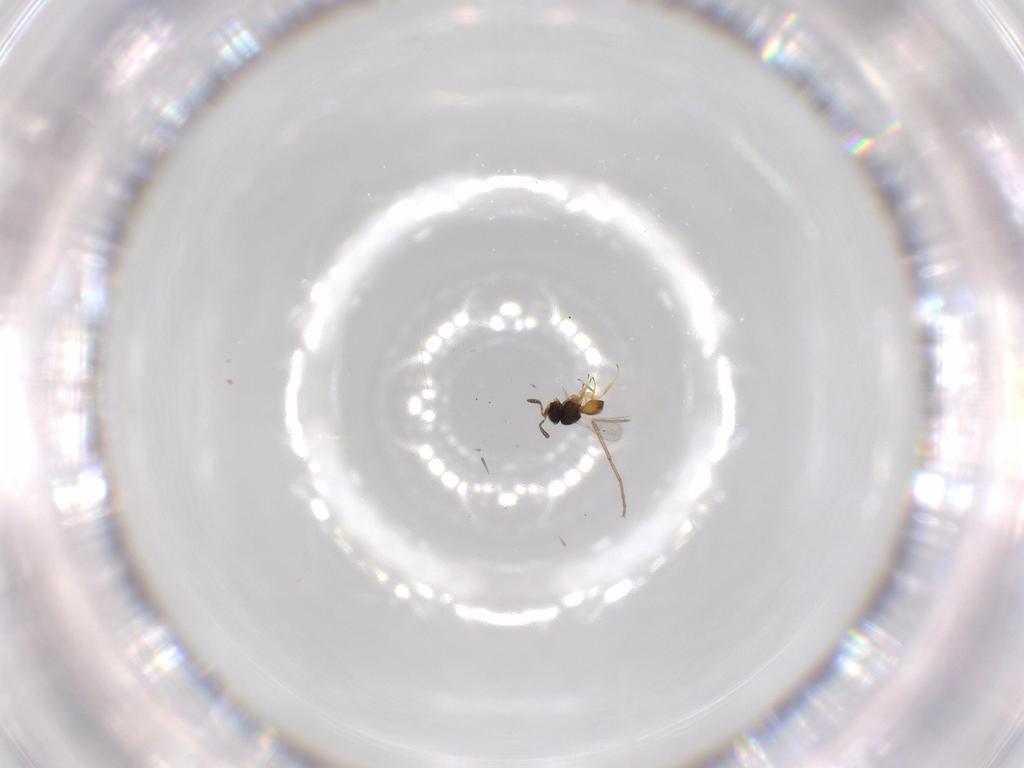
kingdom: Animalia
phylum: Arthropoda
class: Insecta
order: Hymenoptera
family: Scelionidae
